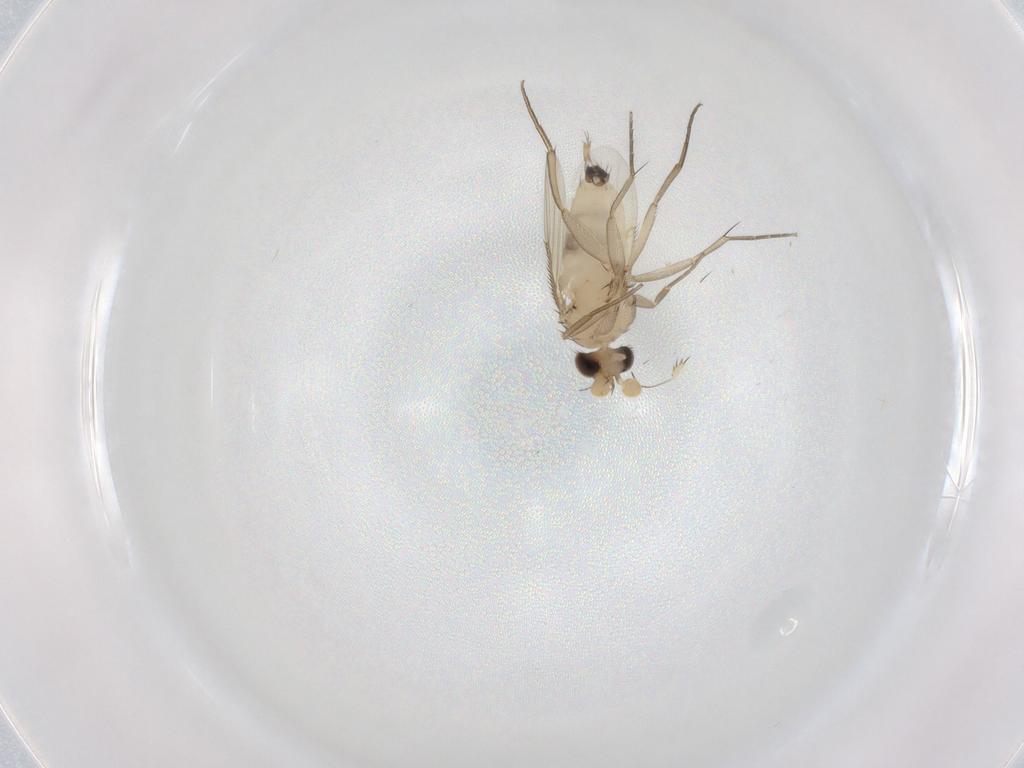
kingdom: Animalia
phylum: Arthropoda
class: Insecta
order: Diptera
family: Phoridae
